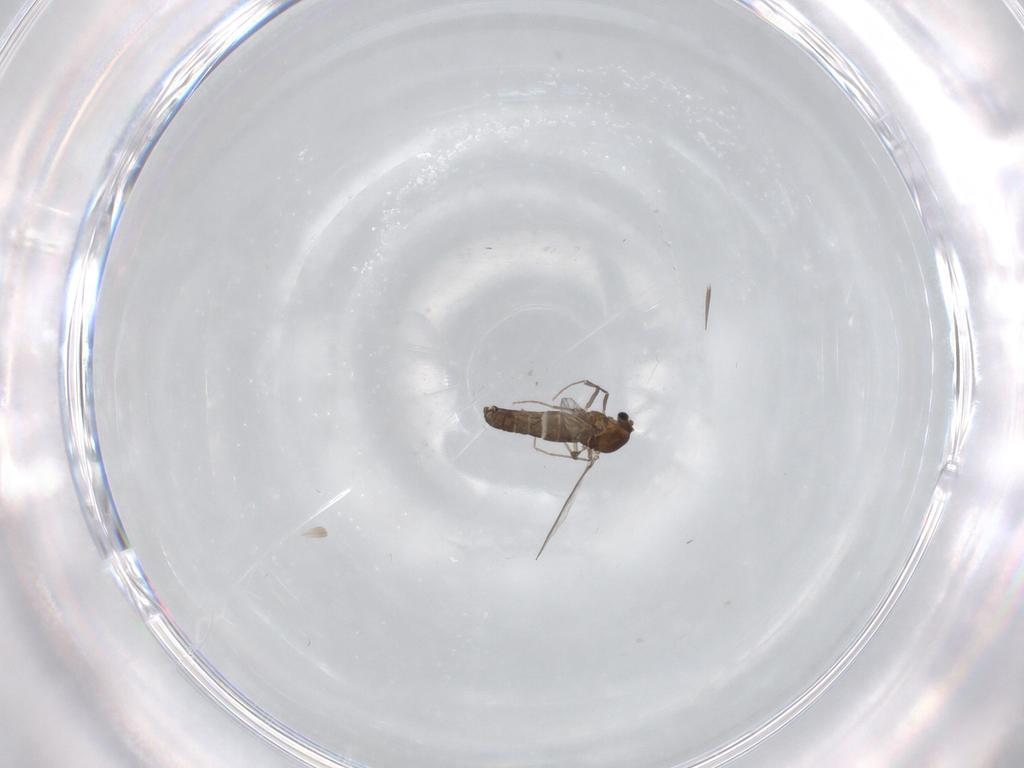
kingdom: Animalia
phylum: Arthropoda
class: Insecta
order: Diptera
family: Chironomidae
